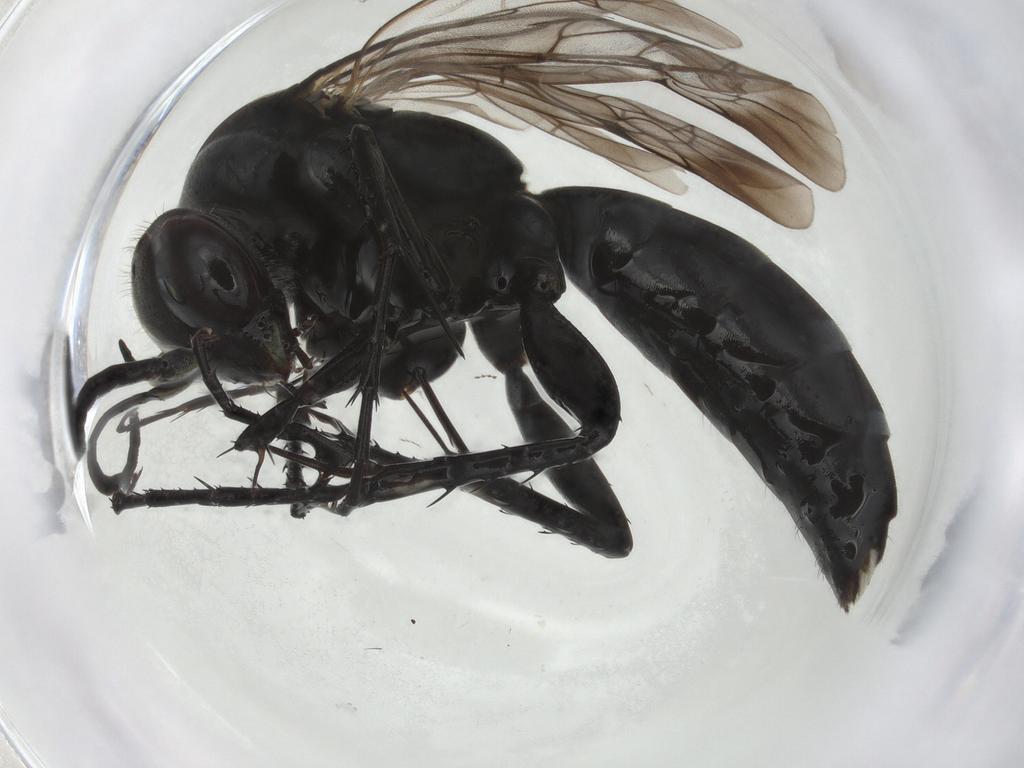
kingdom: Animalia
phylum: Arthropoda
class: Insecta
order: Hymenoptera
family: Pompilidae
